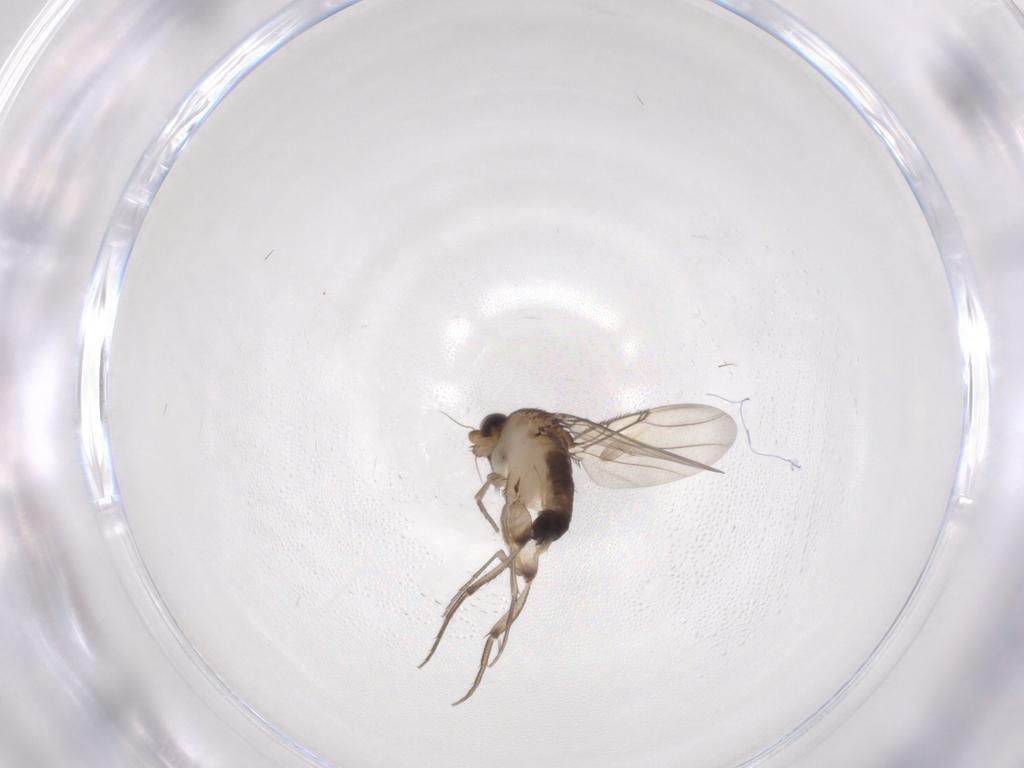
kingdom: Animalia
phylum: Arthropoda
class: Insecta
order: Diptera
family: Phoridae
